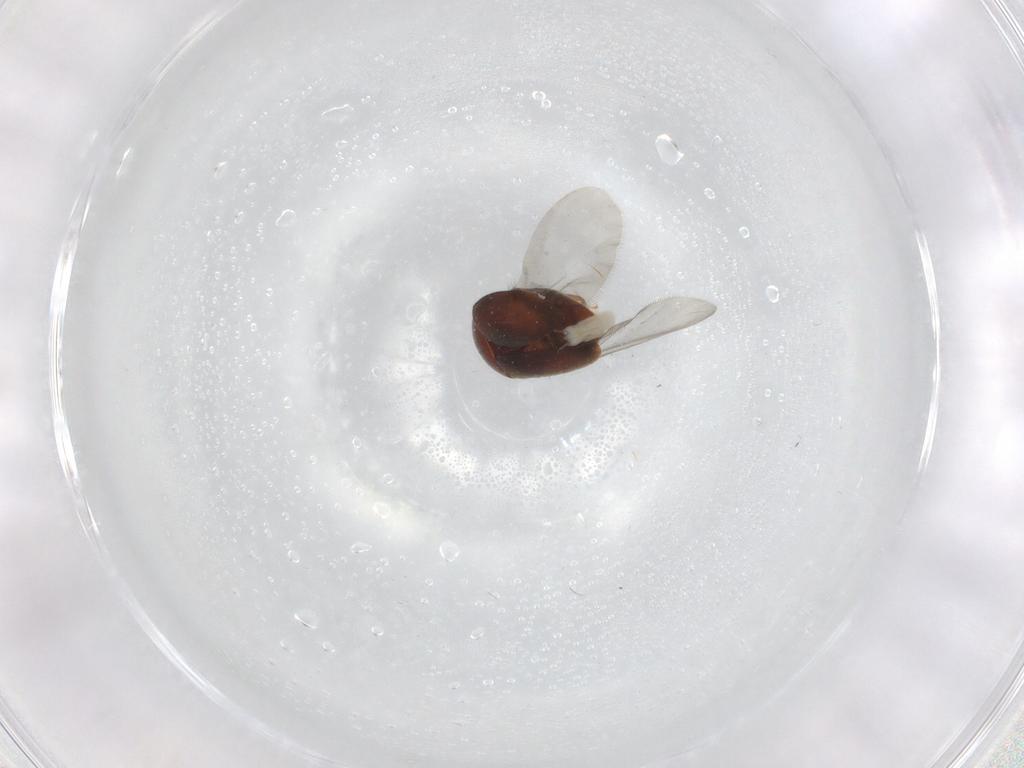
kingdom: Animalia
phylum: Arthropoda
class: Insecta
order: Coleoptera
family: Corylophidae
